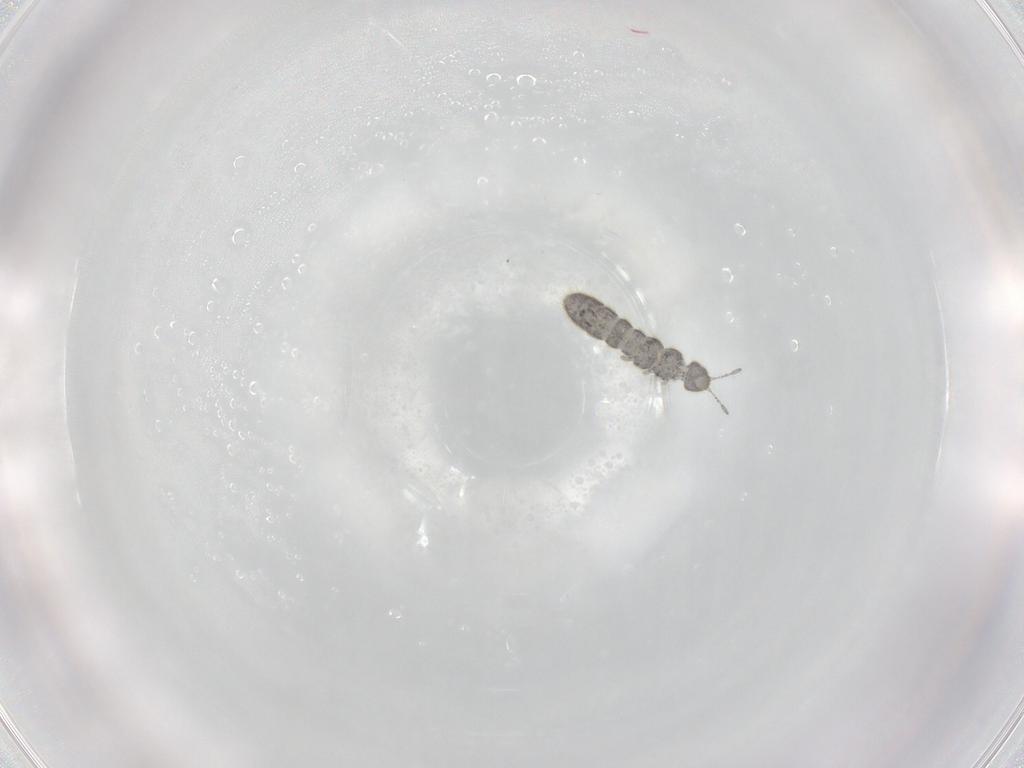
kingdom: Animalia
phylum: Arthropoda
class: Collembola
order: Entomobryomorpha
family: Isotomidae
